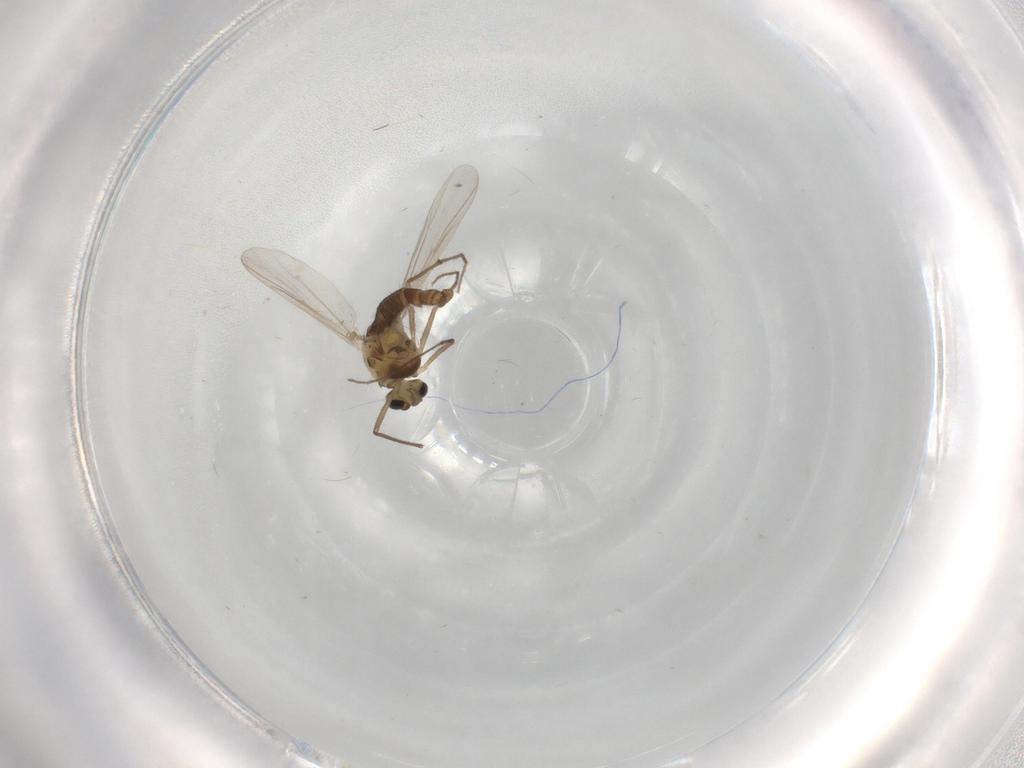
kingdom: Animalia
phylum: Arthropoda
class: Insecta
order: Diptera
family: Chironomidae
